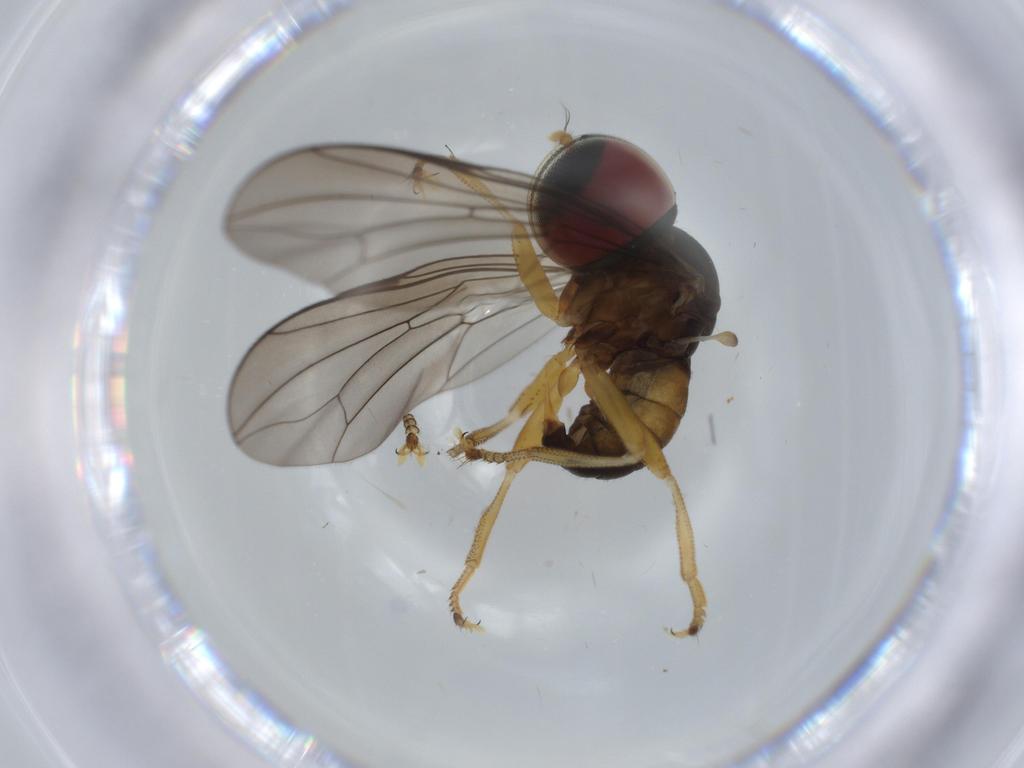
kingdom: Animalia
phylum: Arthropoda
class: Insecta
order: Diptera
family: Pipunculidae
